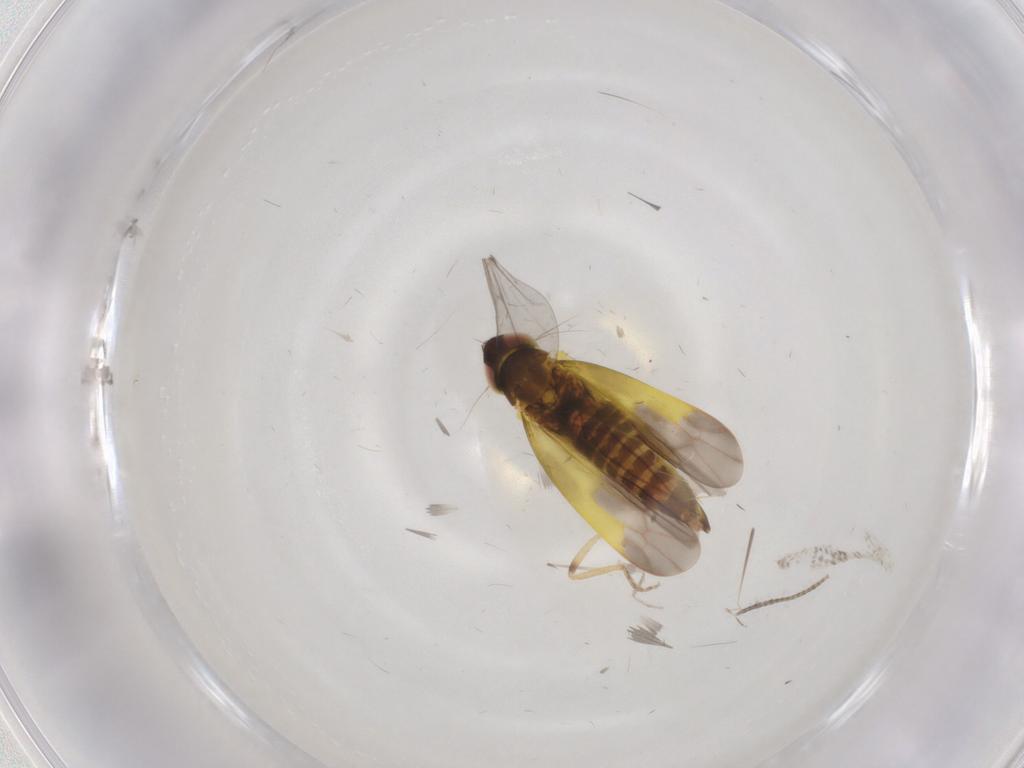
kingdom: Animalia
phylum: Arthropoda
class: Insecta
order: Hemiptera
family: Cicadellidae
